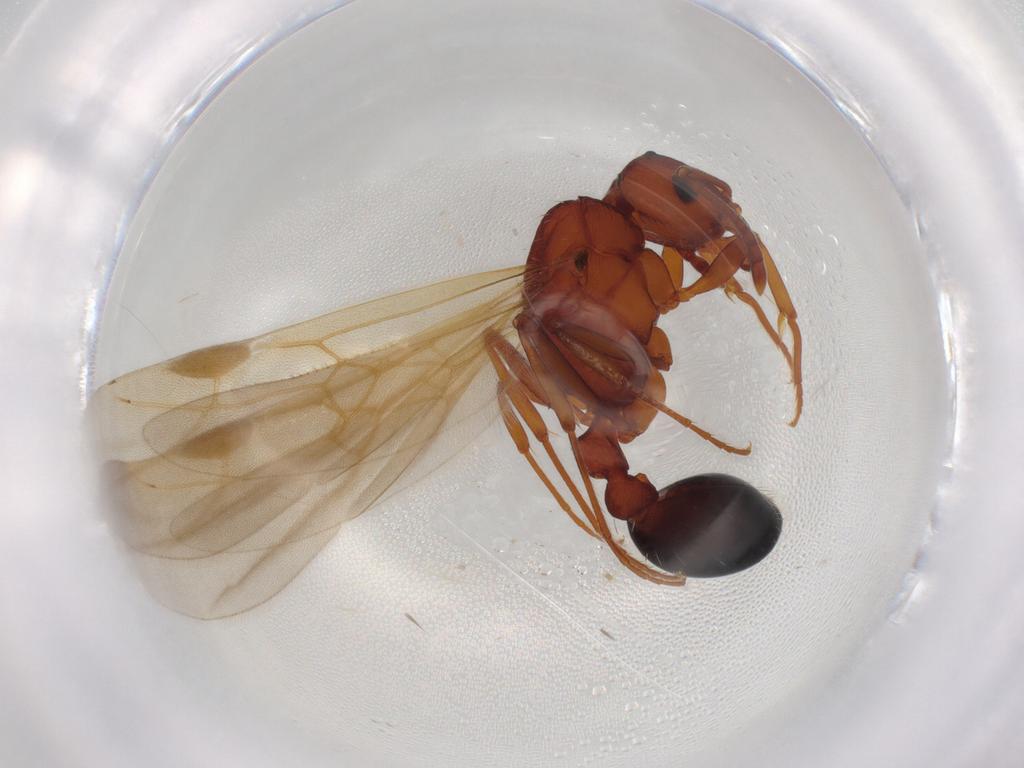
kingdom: Animalia
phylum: Arthropoda
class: Insecta
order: Hymenoptera
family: Formicidae
